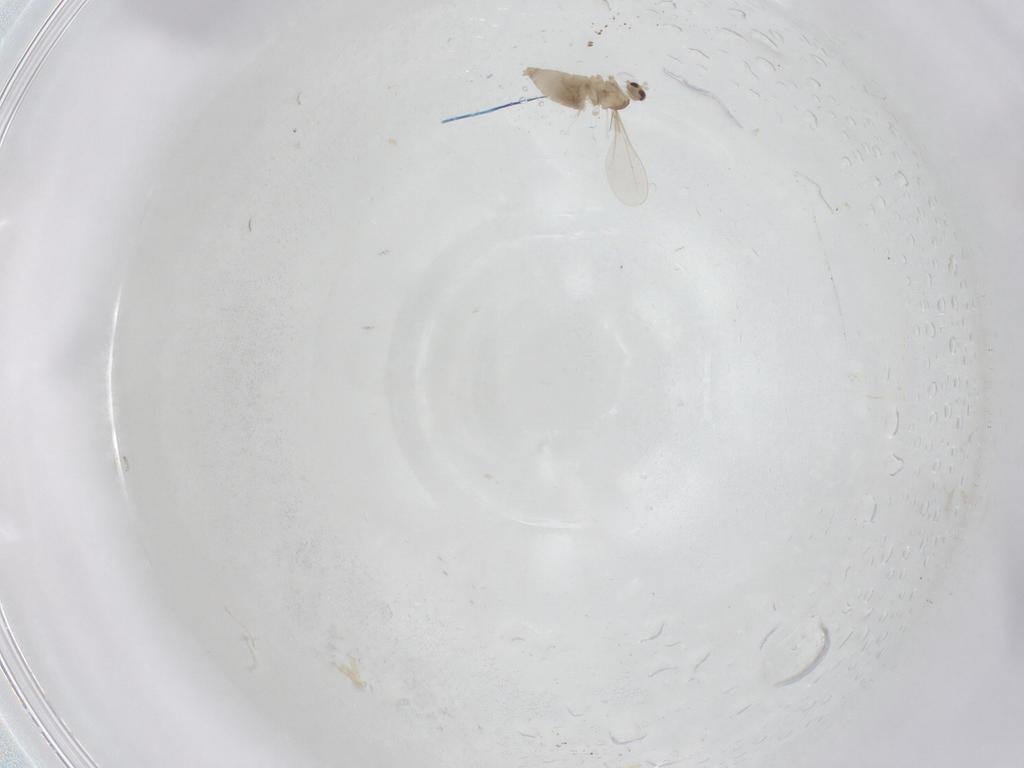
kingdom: Animalia
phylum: Arthropoda
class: Insecta
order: Diptera
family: Cecidomyiidae
